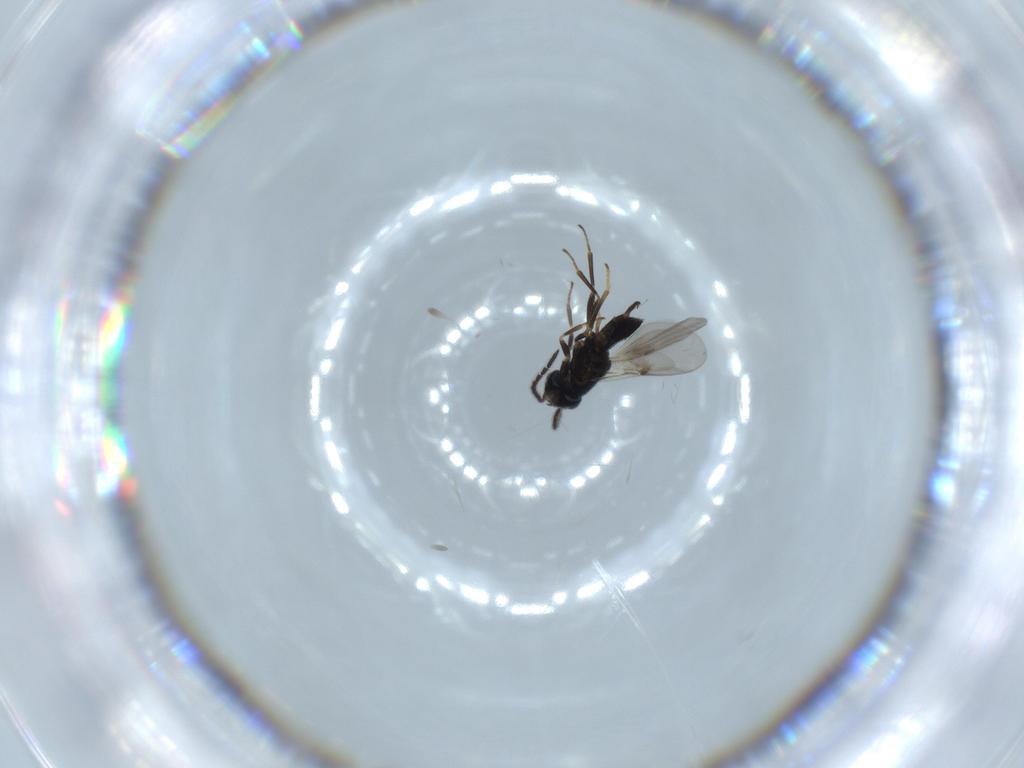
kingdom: Animalia
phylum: Arthropoda
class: Insecta
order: Hymenoptera
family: Encyrtidae
